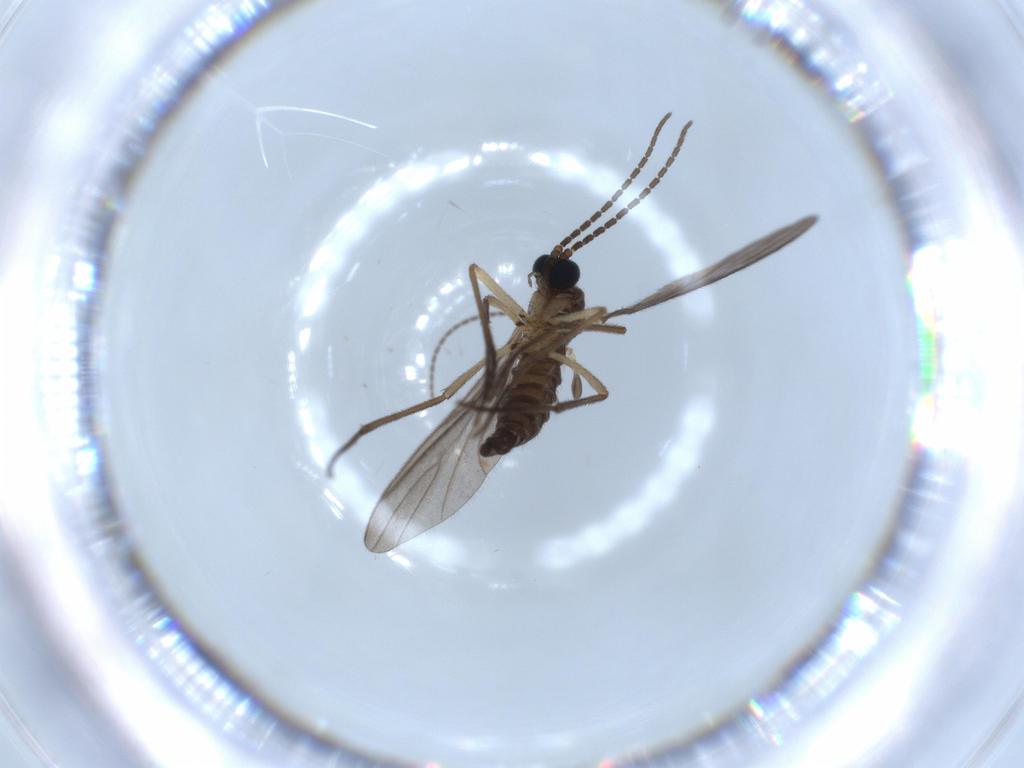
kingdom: Animalia
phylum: Arthropoda
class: Insecta
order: Diptera
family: Sciaridae
